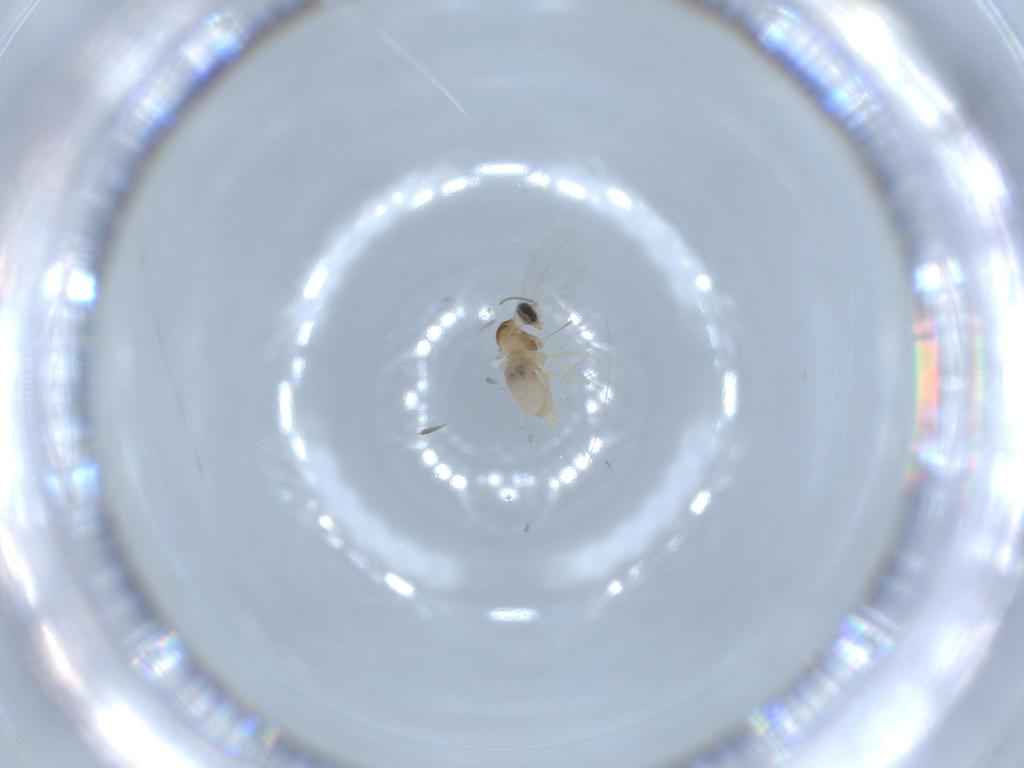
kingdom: Animalia
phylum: Arthropoda
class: Insecta
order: Diptera
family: Cecidomyiidae
